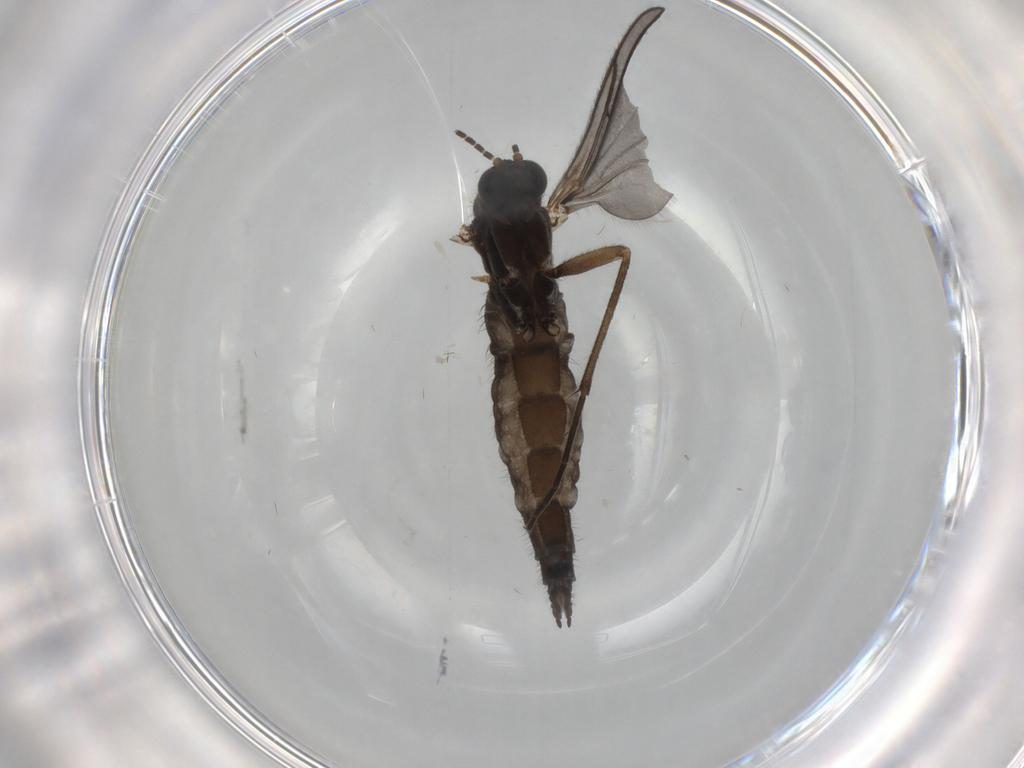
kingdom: Animalia
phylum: Arthropoda
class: Insecta
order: Diptera
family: Sciaridae
